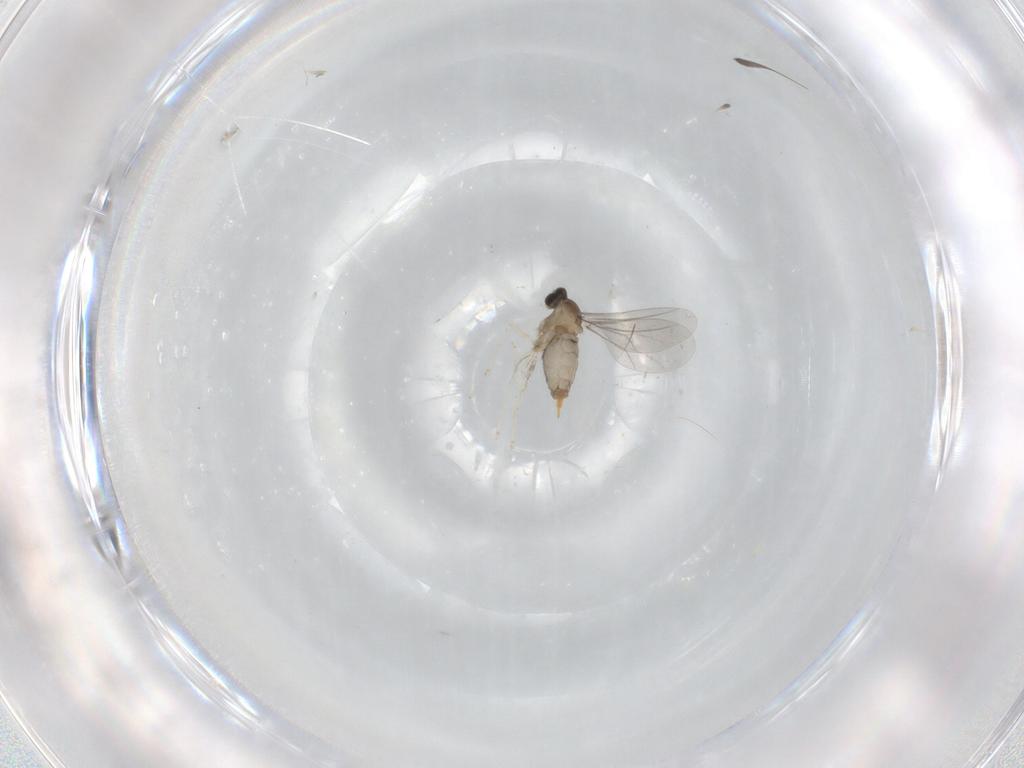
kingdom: Animalia
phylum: Arthropoda
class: Insecta
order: Diptera
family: Cecidomyiidae
